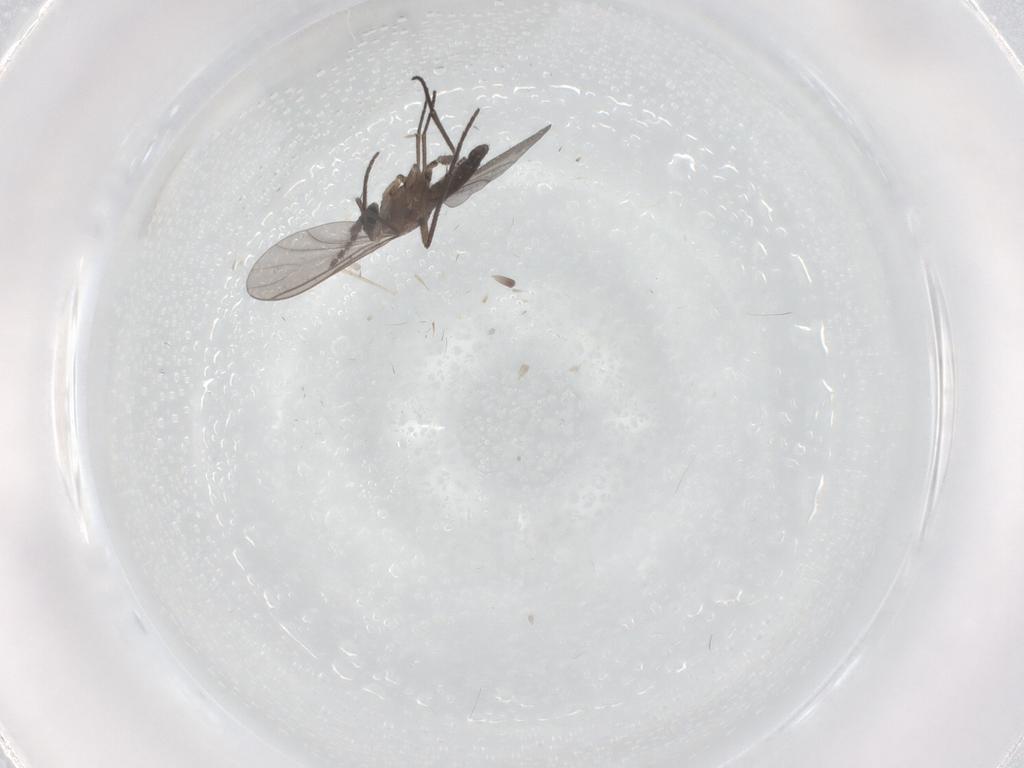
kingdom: Animalia
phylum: Arthropoda
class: Insecta
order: Diptera
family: Cecidomyiidae
